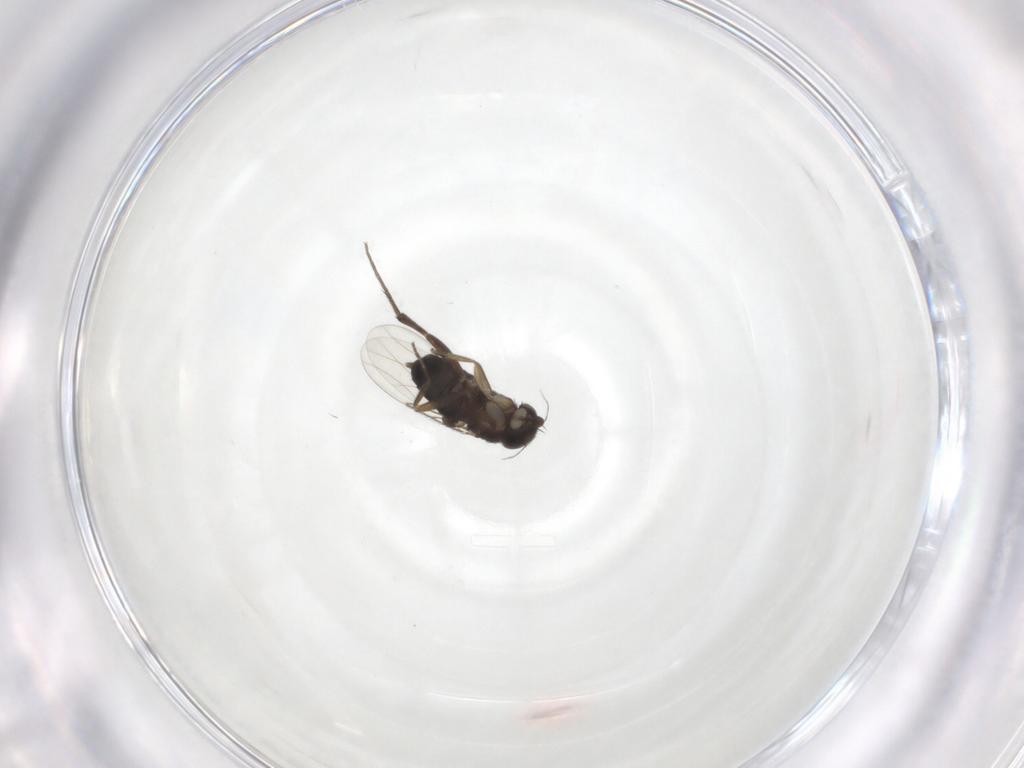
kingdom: Animalia
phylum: Arthropoda
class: Insecta
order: Diptera
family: Phoridae
